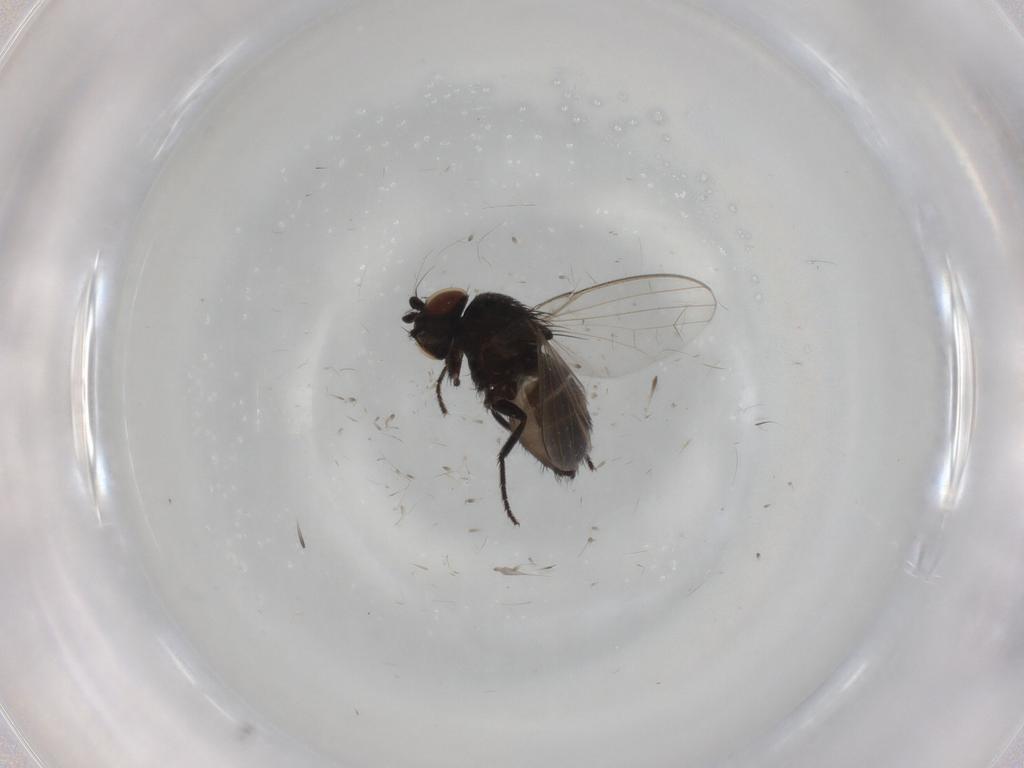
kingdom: Animalia
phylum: Arthropoda
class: Insecta
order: Diptera
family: Milichiidae
